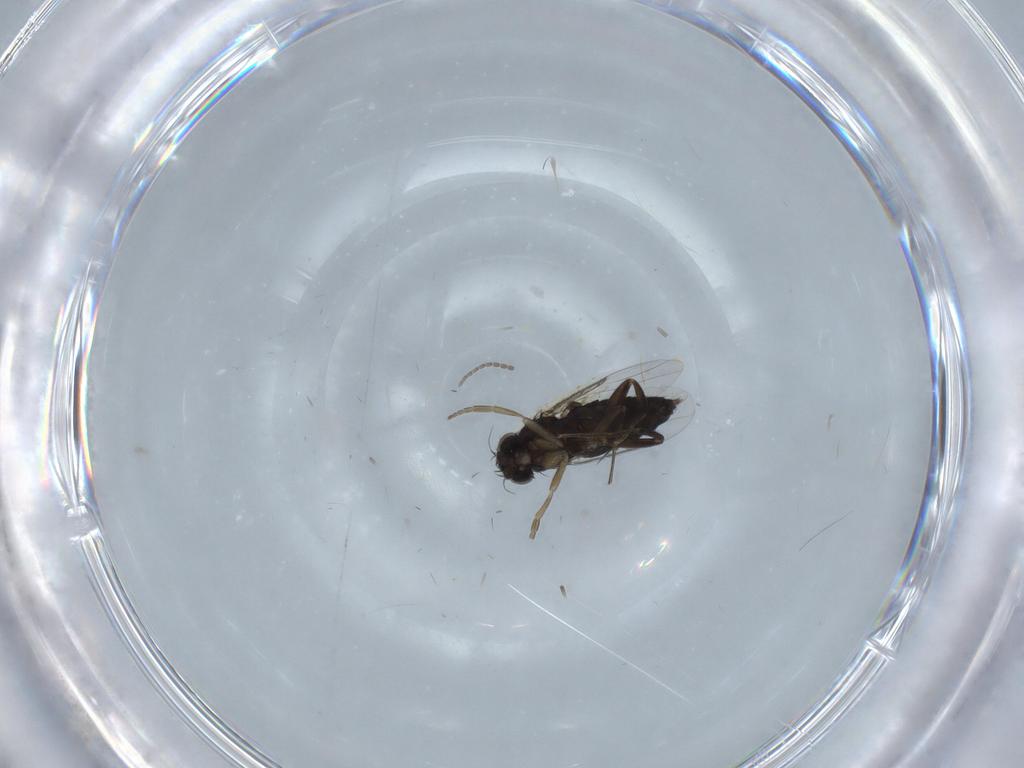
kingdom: Animalia
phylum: Arthropoda
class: Insecta
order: Diptera
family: Phoridae
